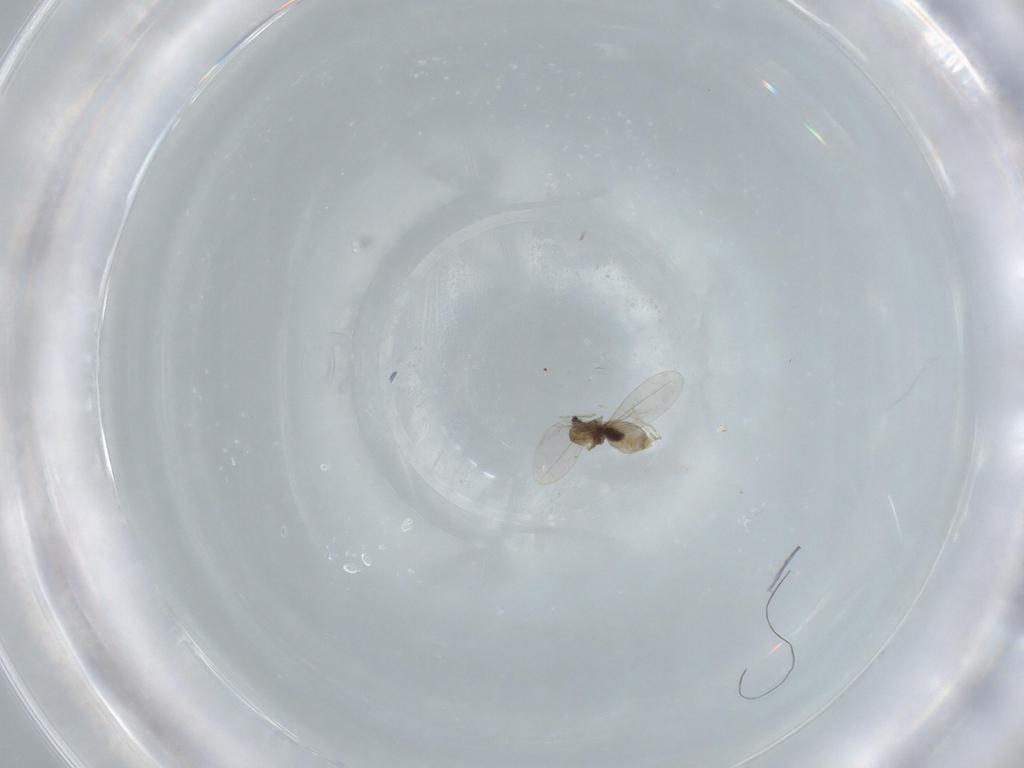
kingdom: Animalia
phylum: Arthropoda
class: Insecta
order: Diptera
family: Cecidomyiidae
